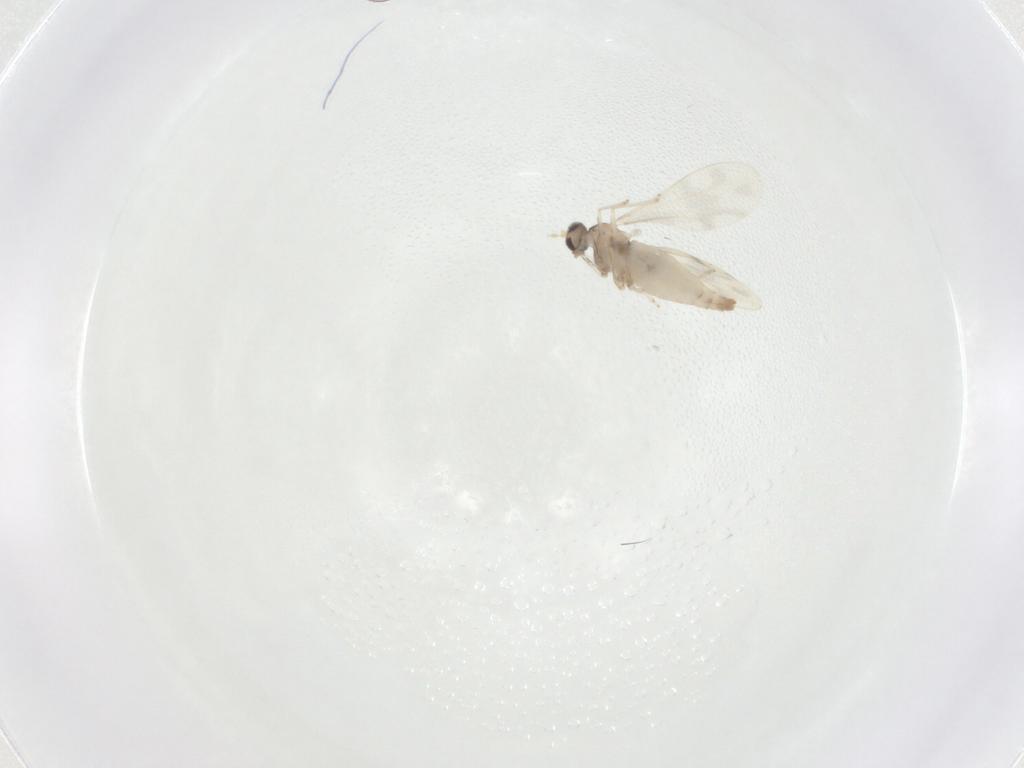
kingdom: Animalia
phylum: Arthropoda
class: Insecta
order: Diptera
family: Cecidomyiidae
